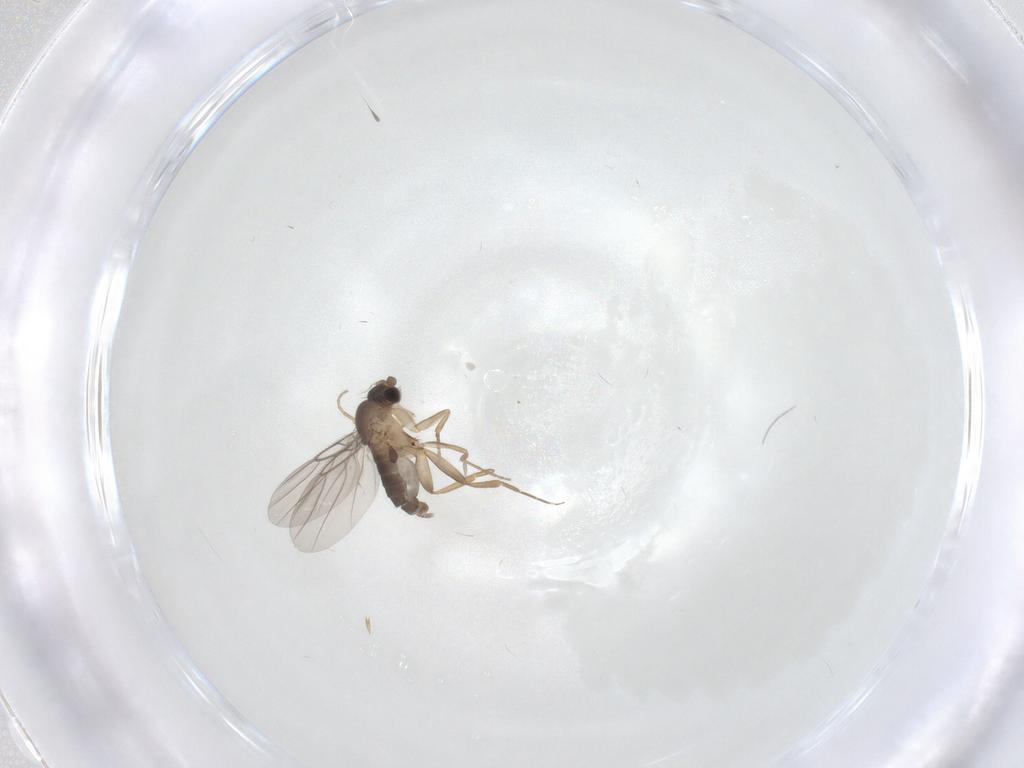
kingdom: Animalia
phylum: Arthropoda
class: Insecta
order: Diptera
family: Phoridae
